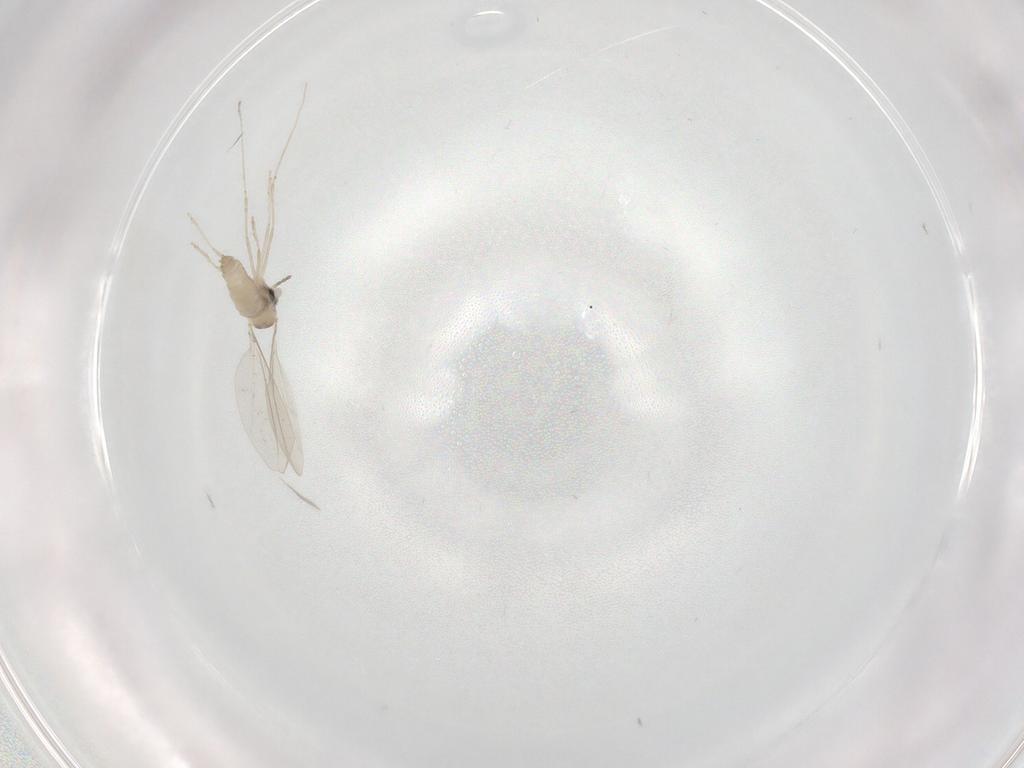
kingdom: Animalia
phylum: Arthropoda
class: Insecta
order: Diptera
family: Cecidomyiidae
